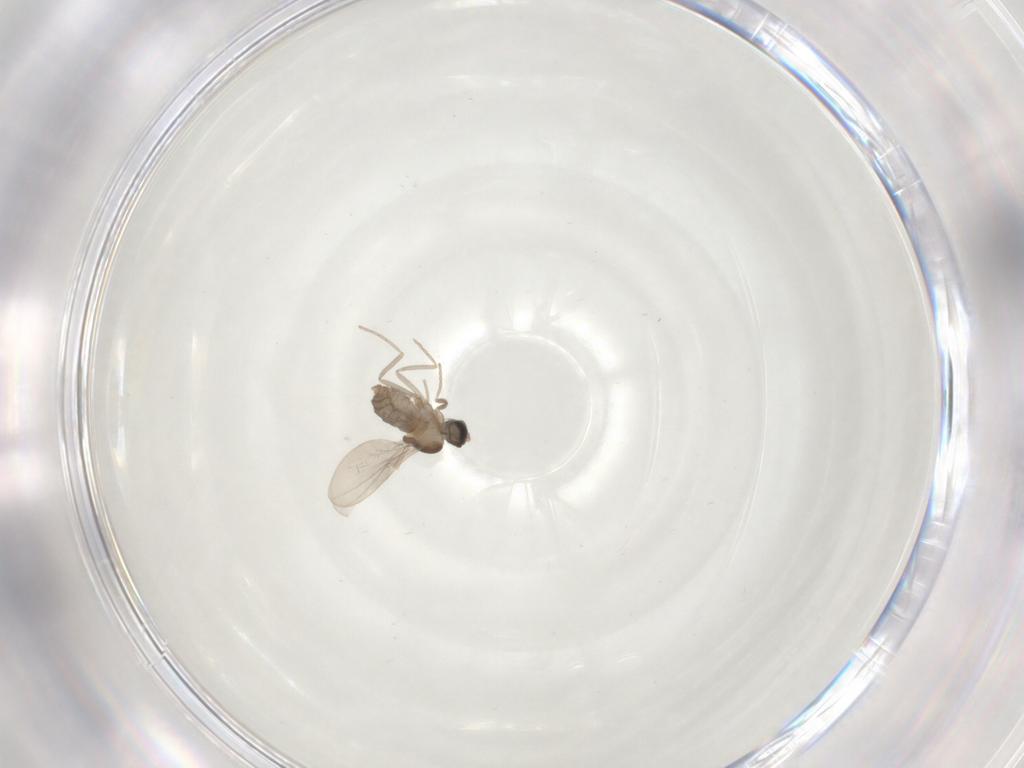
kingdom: Animalia
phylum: Arthropoda
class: Insecta
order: Diptera
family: Cecidomyiidae
